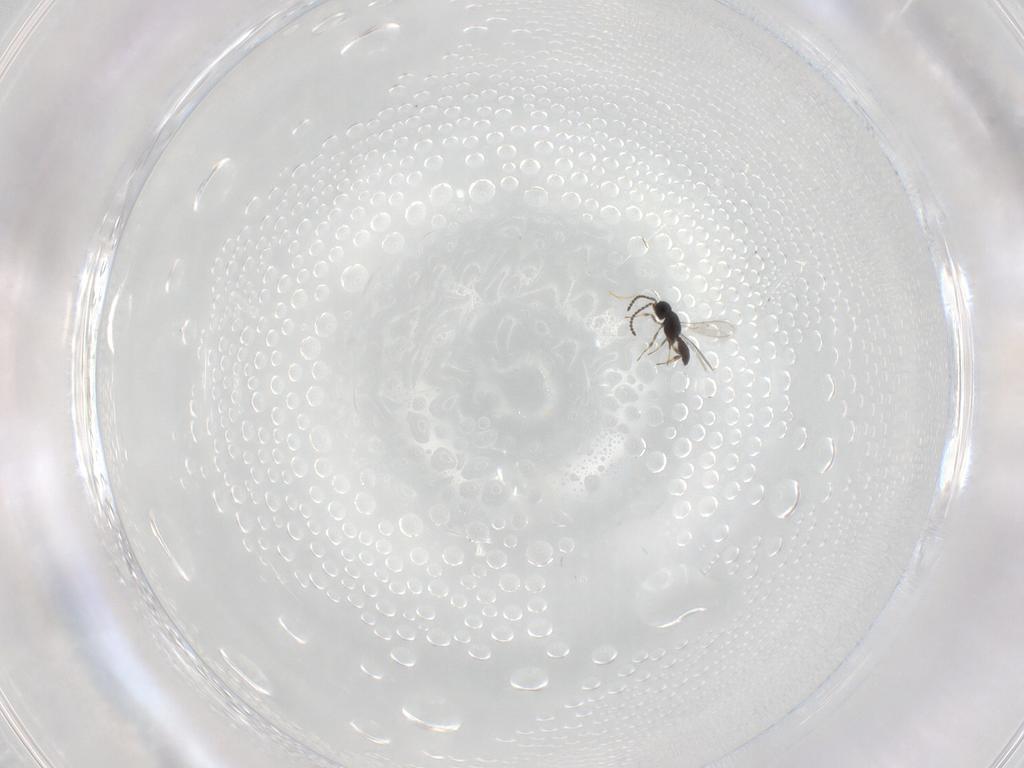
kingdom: Animalia
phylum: Arthropoda
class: Insecta
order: Hymenoptera
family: Scelionidae
